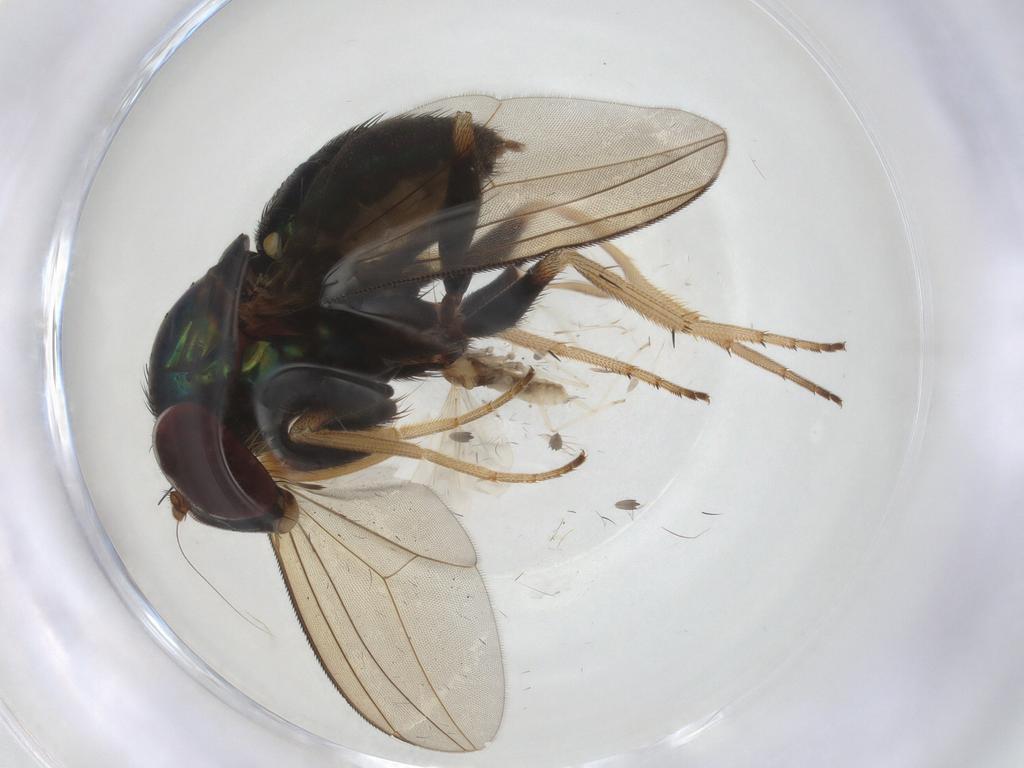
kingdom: Animalia
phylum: Arthropoda
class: Insecta
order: Diptera
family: Dolichopodidae
